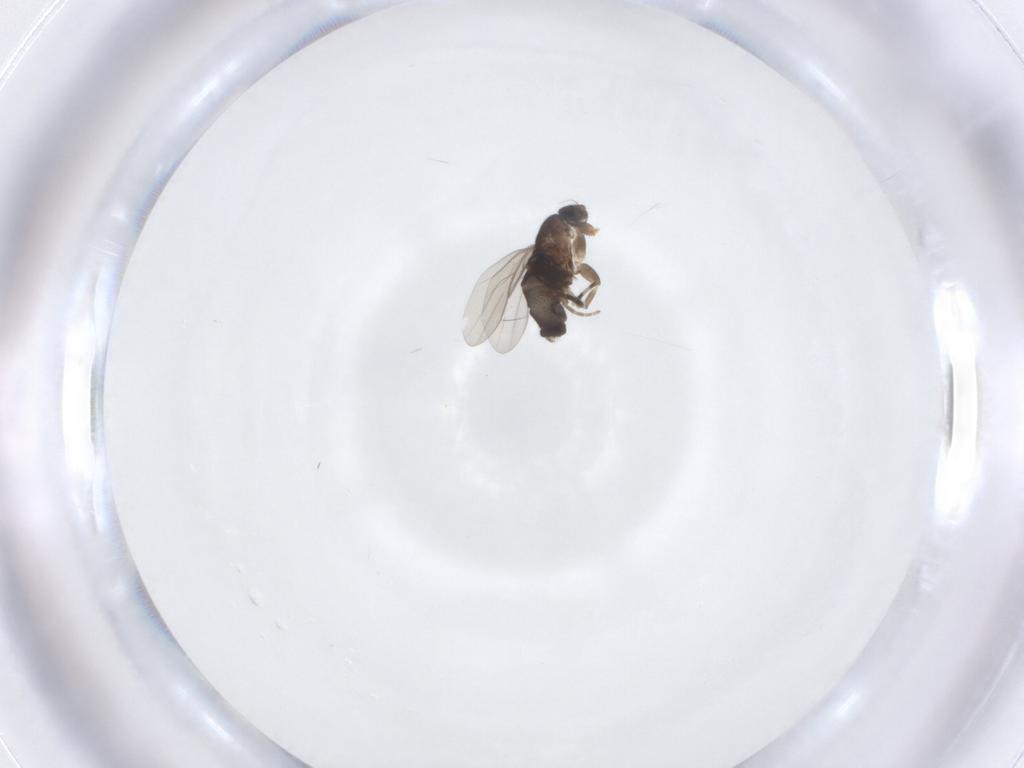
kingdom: Animalia
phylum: Arthropoda
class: Insecta
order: Diptera
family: Phoridae
